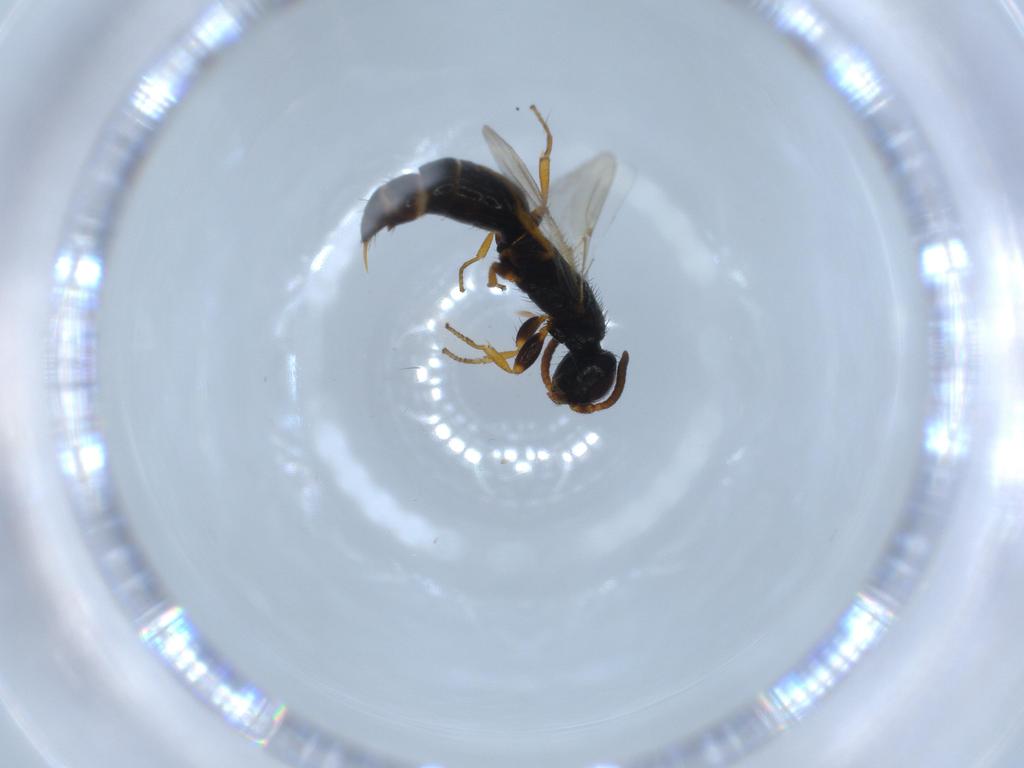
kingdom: Animalia
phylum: Arthropoda
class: Insecta
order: Hymenoptera
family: Bethylidae
